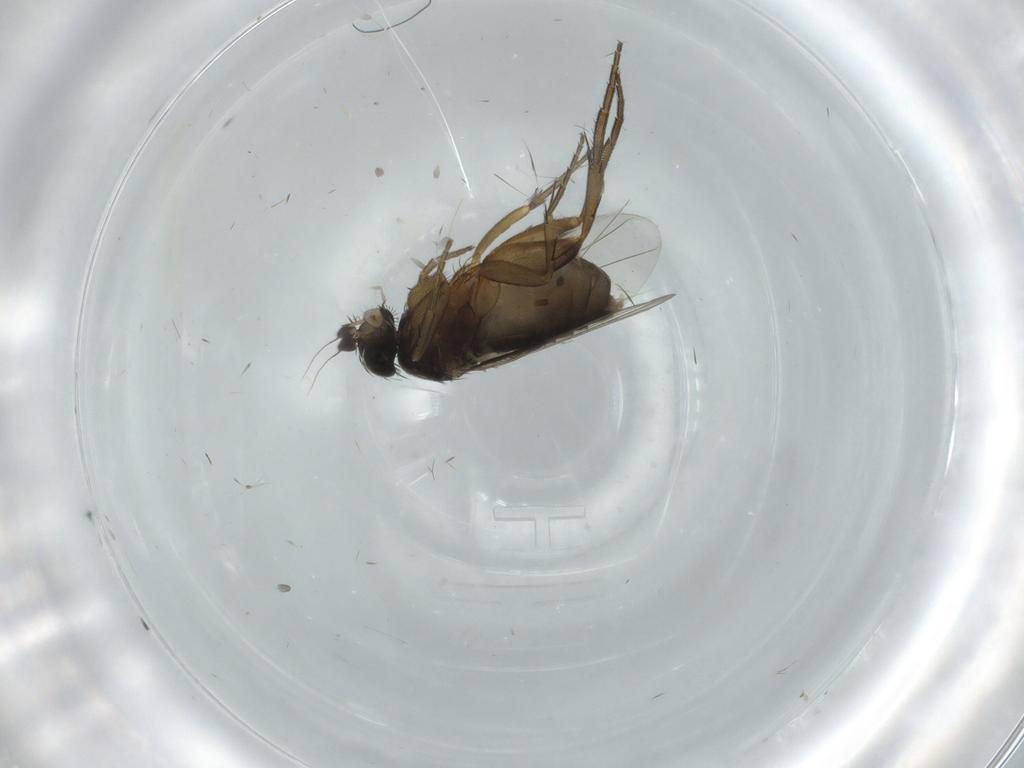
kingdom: Animalia
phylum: Arthropoda
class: Insecta
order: Diptera
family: Phoridae
